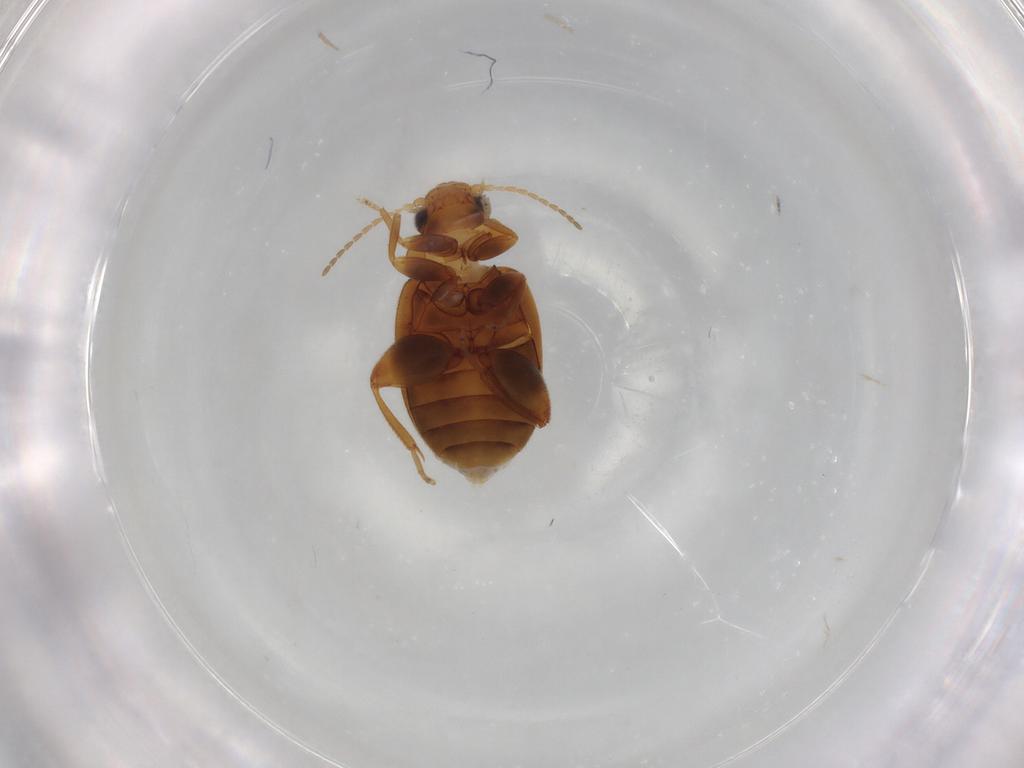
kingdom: Animalia
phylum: Arthropoda
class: Insecta
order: Coleoptera
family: Scirtidae
